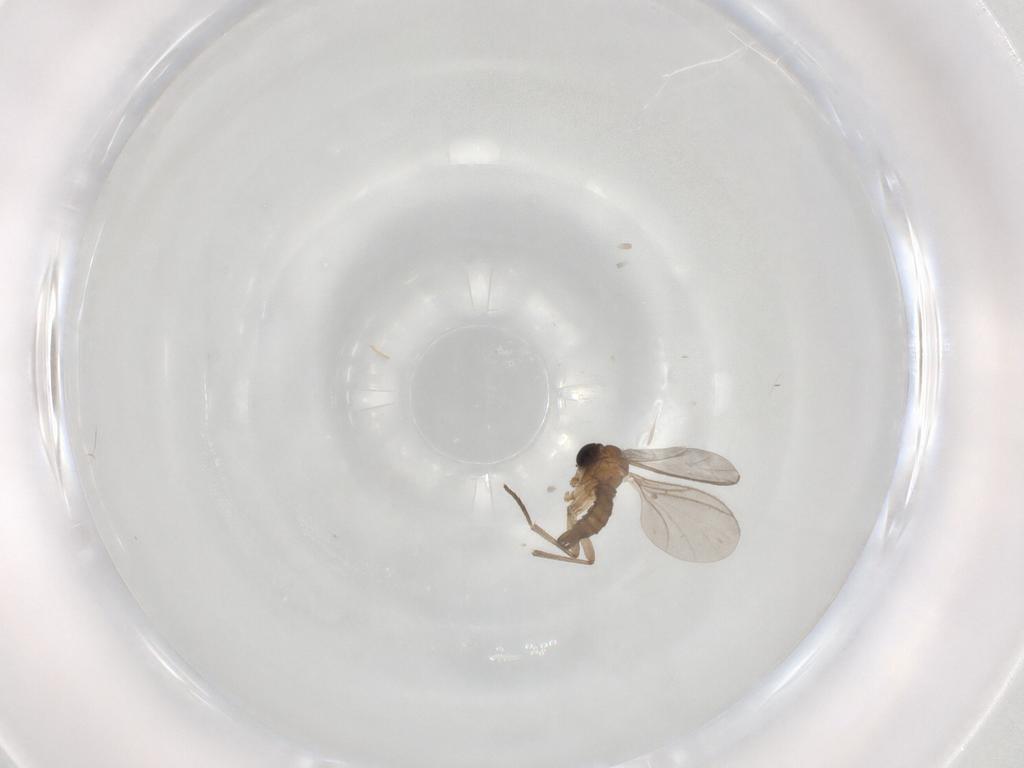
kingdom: Animalia
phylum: Arthropoda
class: Insecta
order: Diptera
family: Sciaridae
